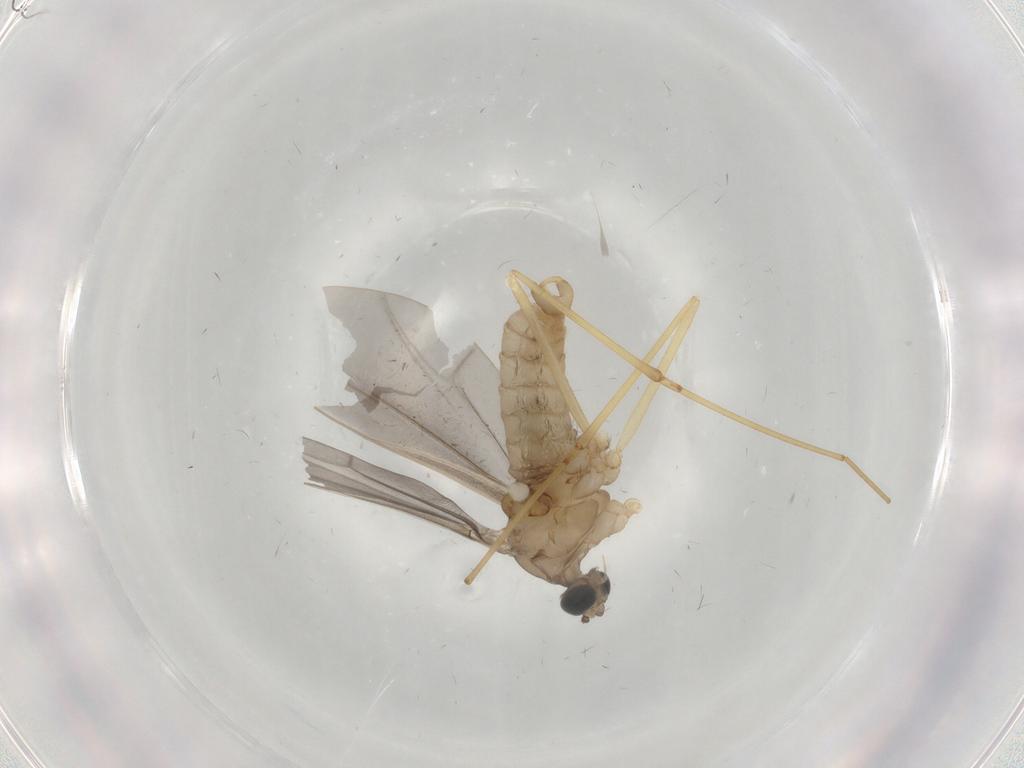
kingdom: Animalia
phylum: Arthropoda
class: Insecta
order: Diptera
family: Cecidomyiidae
